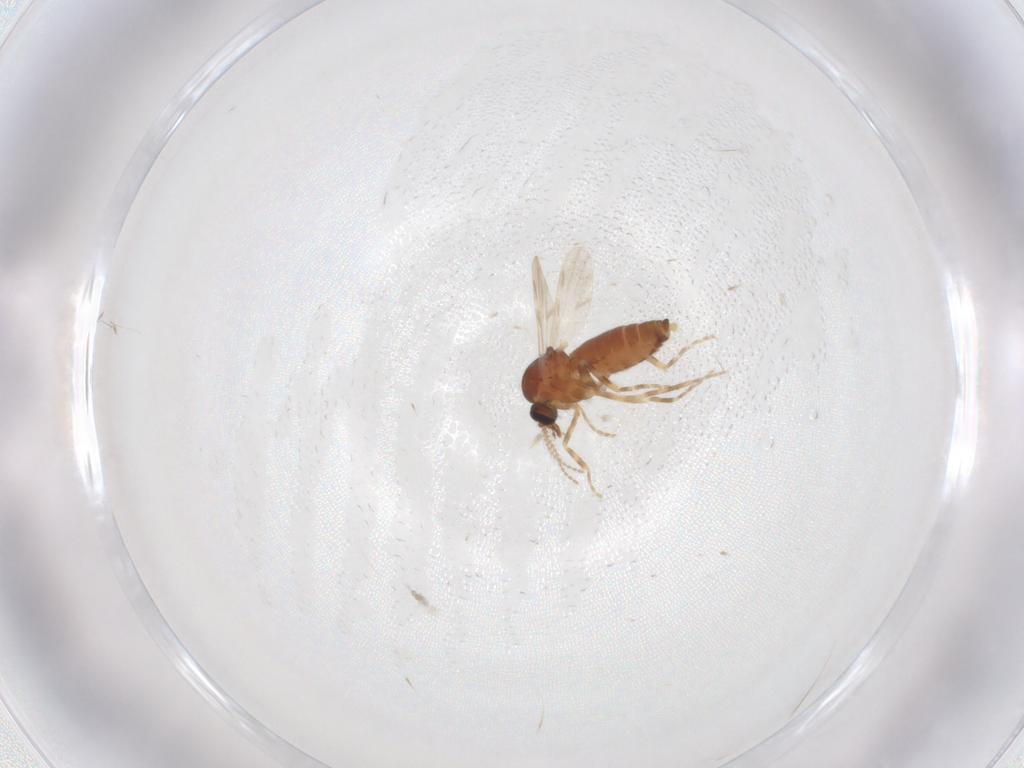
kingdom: Animalia
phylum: Arthropoda
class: Insecta
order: Diptera
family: Ceratopogonidae
